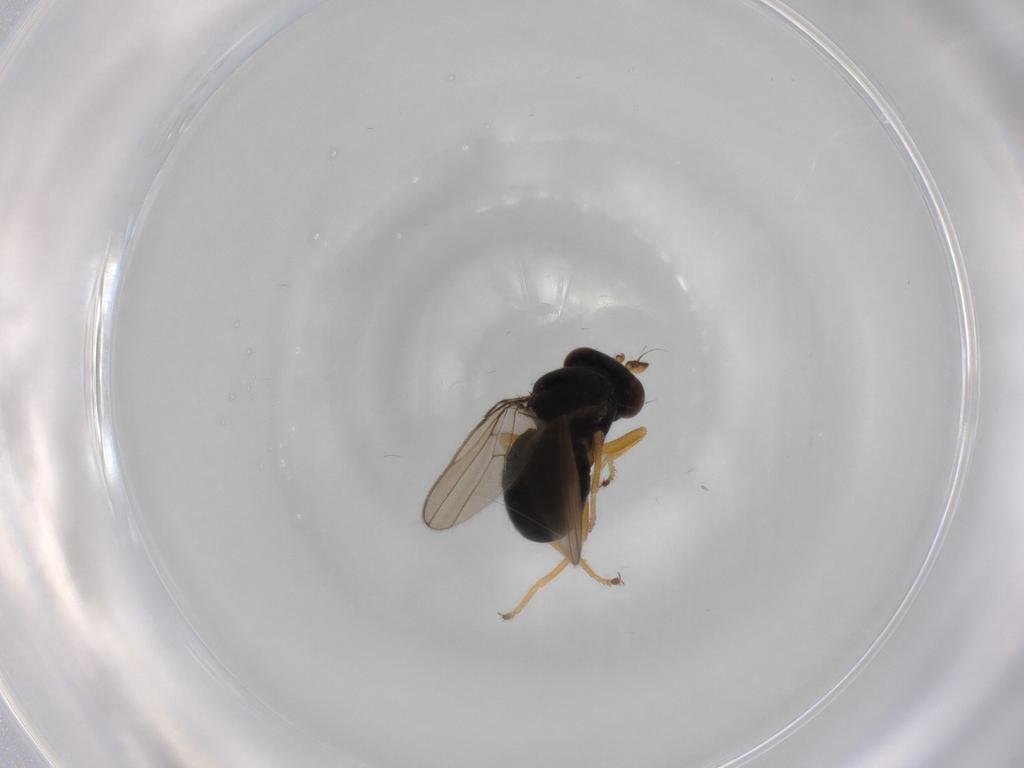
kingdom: Animalia
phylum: Arthropoda
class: Insecta
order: Diptera
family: Ephydridae
